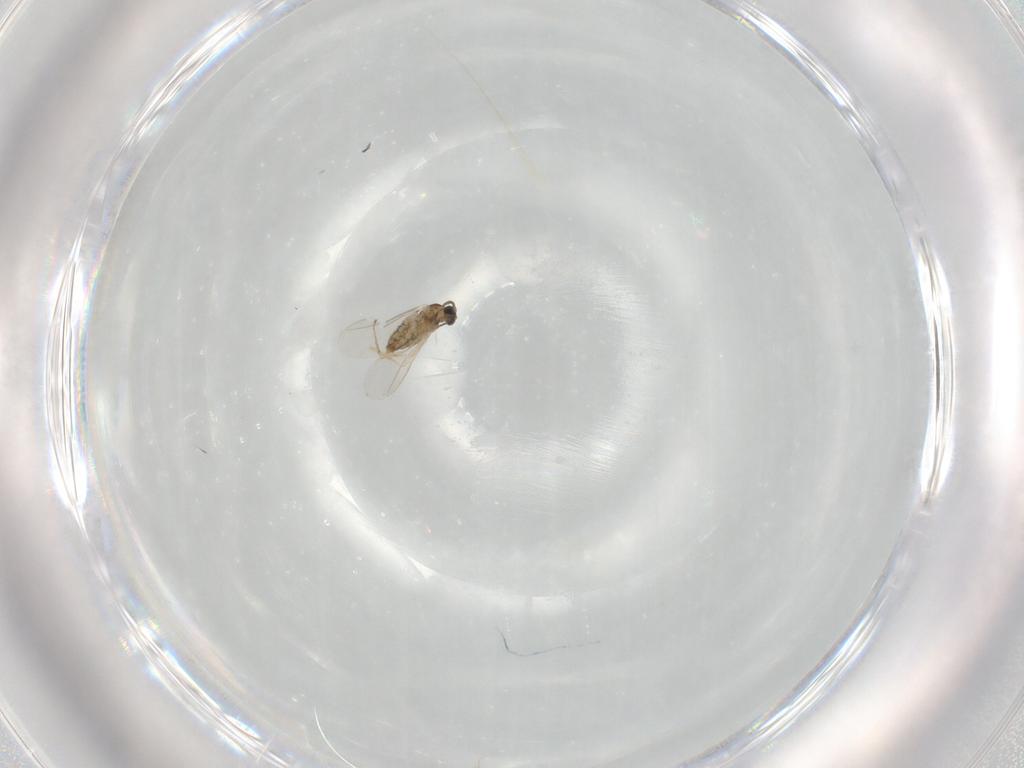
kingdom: Animalia
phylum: Arthropoda
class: Insecta
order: Diptera
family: Cecidomyiidae
